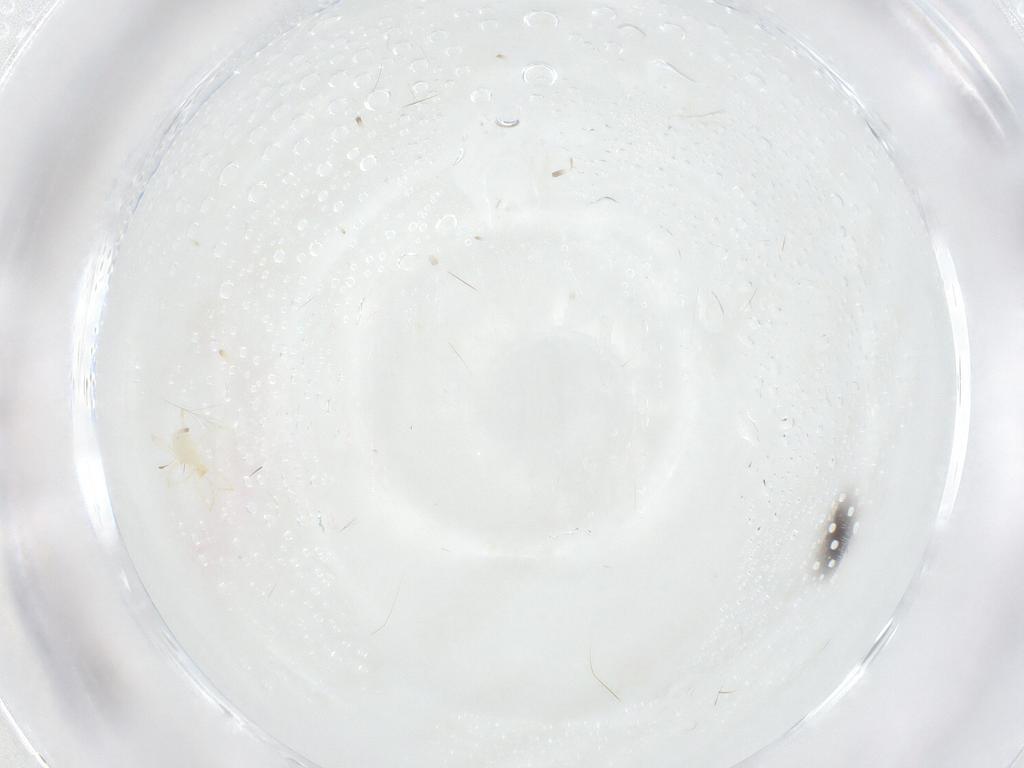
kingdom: Animalia
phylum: Arthropoda
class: Arachnida
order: Trombidiformes
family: Erythraeidae
